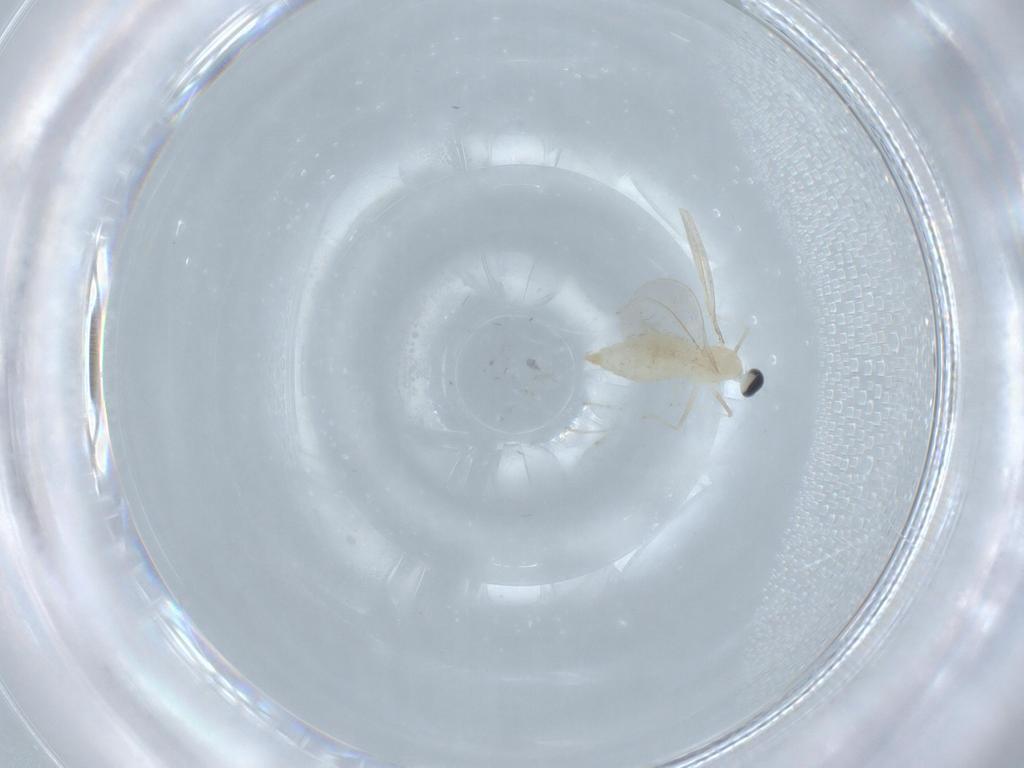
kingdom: Animalia
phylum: Arthropoda
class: Insecta
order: Diptera
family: Cecidomyiidae
